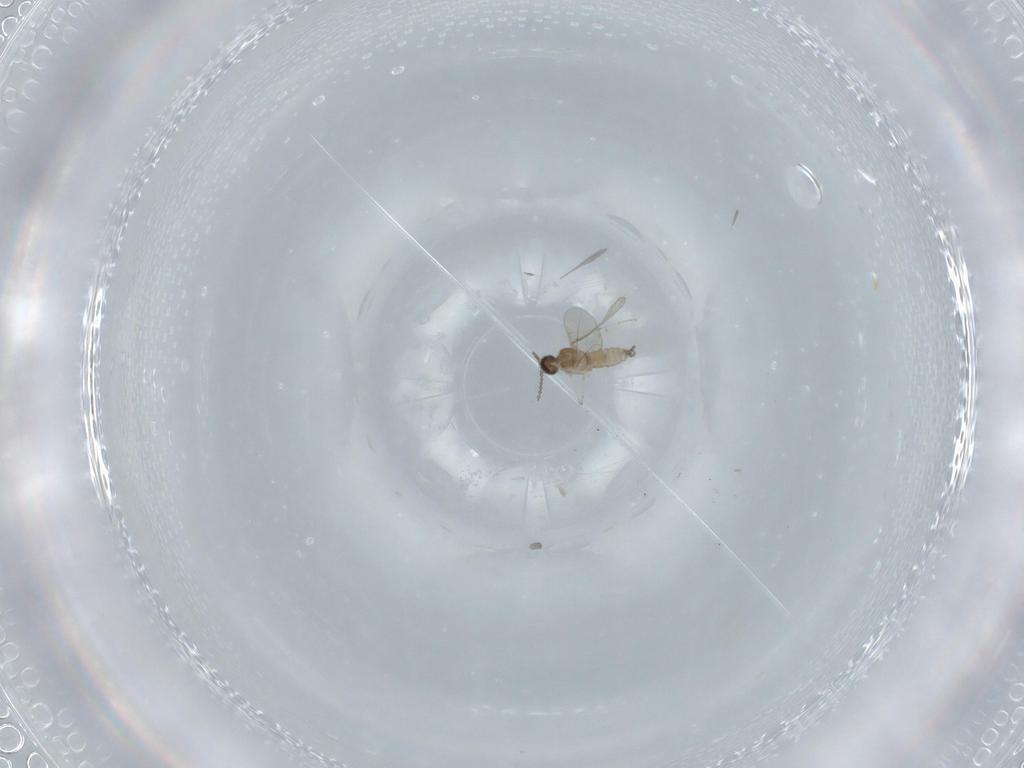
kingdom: Animalia
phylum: Arthropoda
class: Insecta
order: Diptera
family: Cecidomyiidae
